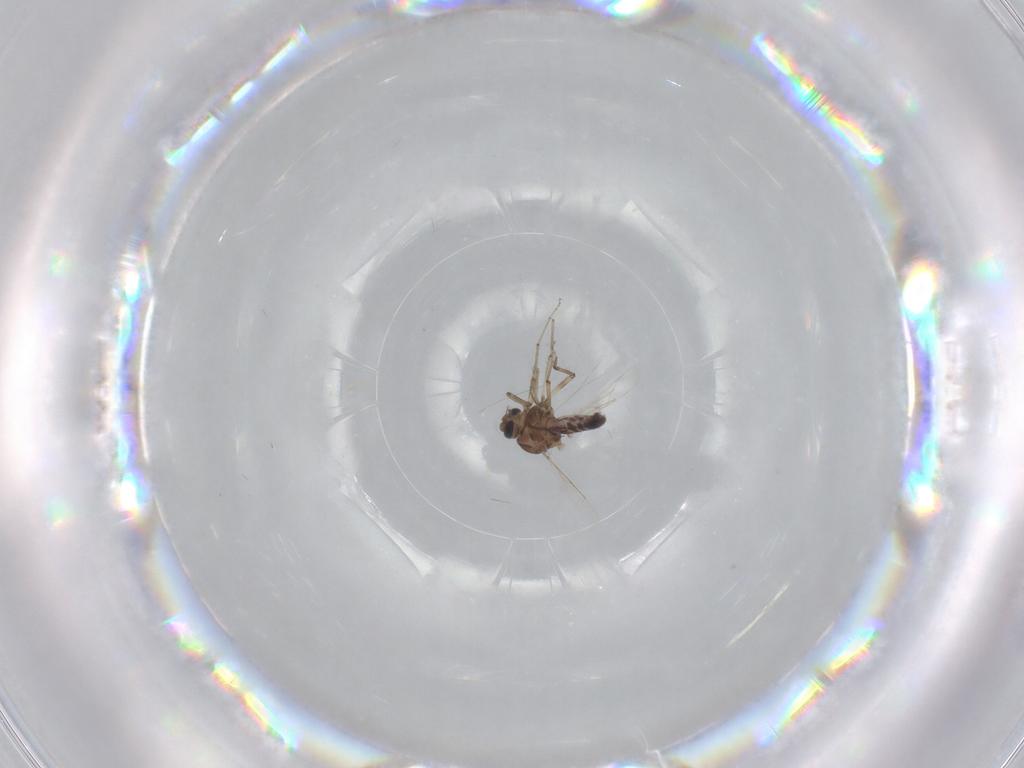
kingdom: Animalia
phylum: Arthropoda
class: Insecta
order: Diptera
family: Ceratopogonidae
